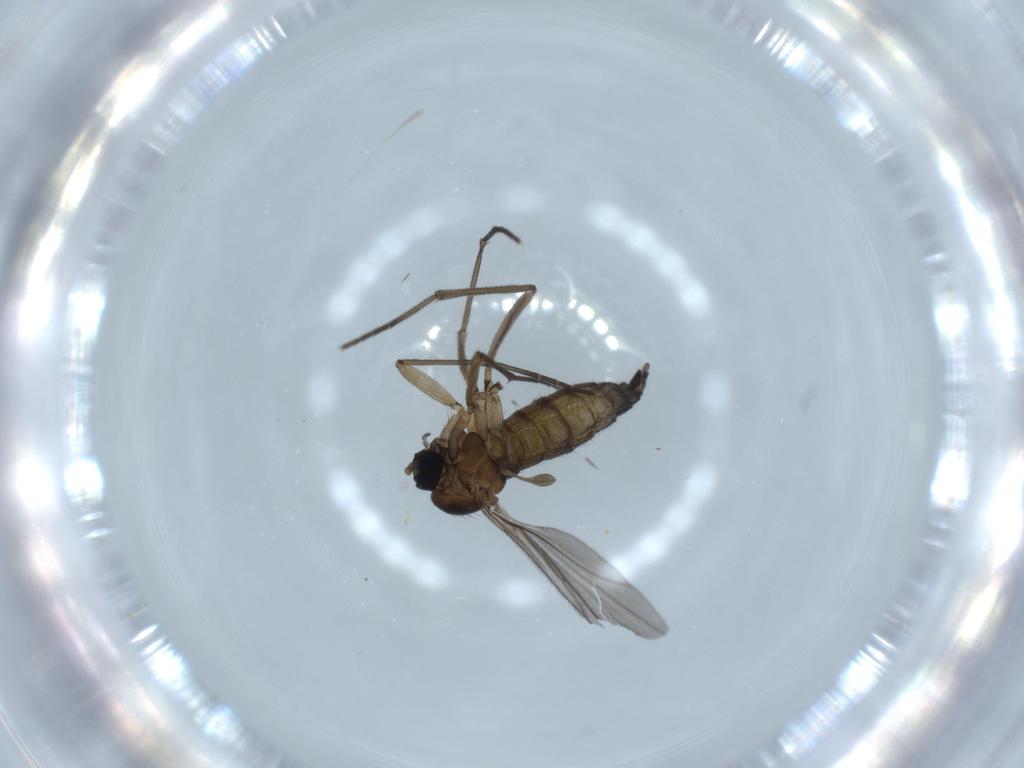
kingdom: Animalia
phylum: Arthropoda
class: Insecta
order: Diptera
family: Sciaridae
